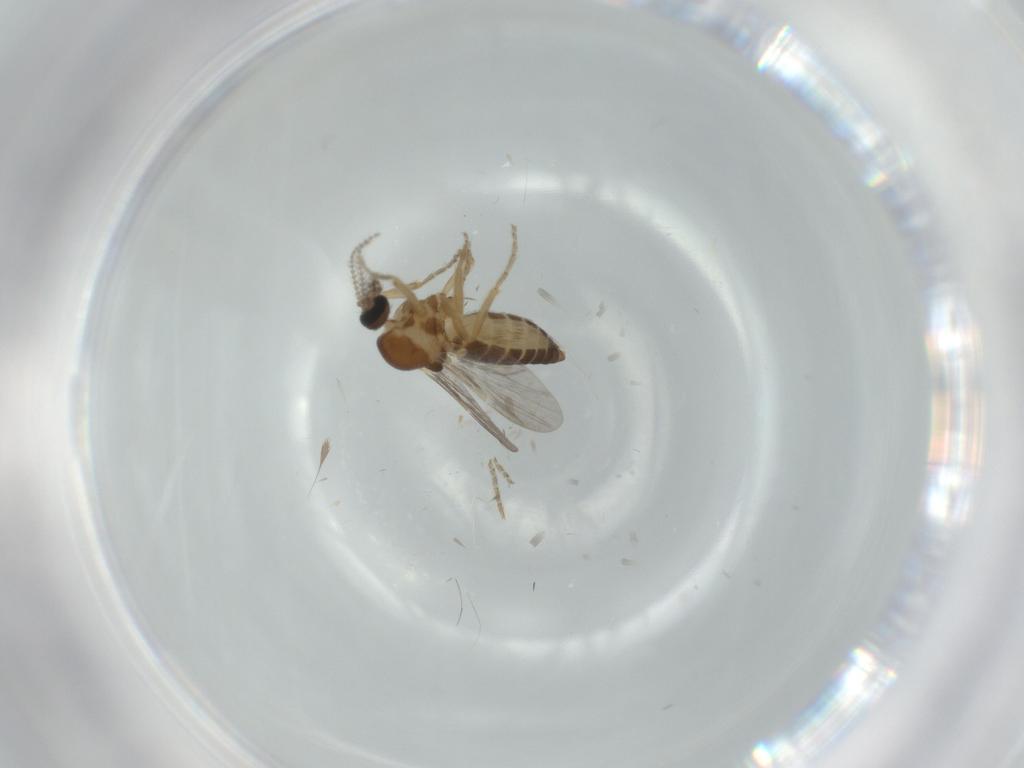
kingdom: Animalia
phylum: Arthropoda
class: Insecta
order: Diptera
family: Ceratopogonidae
